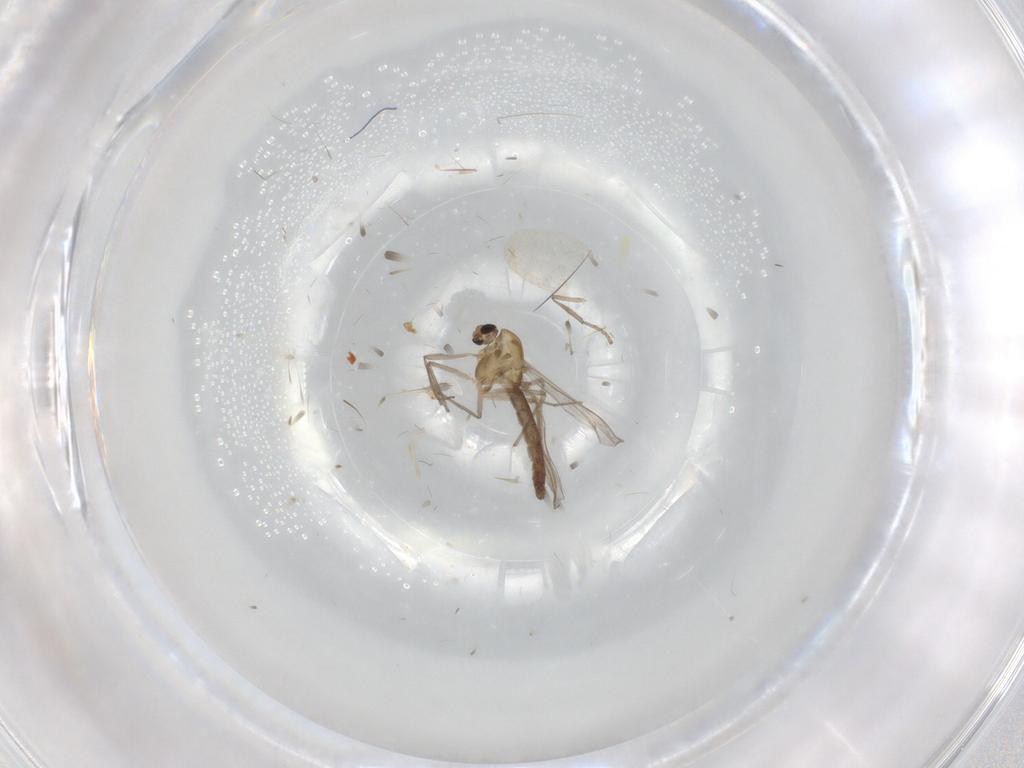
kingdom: Animalia
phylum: Arthropoda
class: Insecta
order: Diptera
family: Chironomidae
